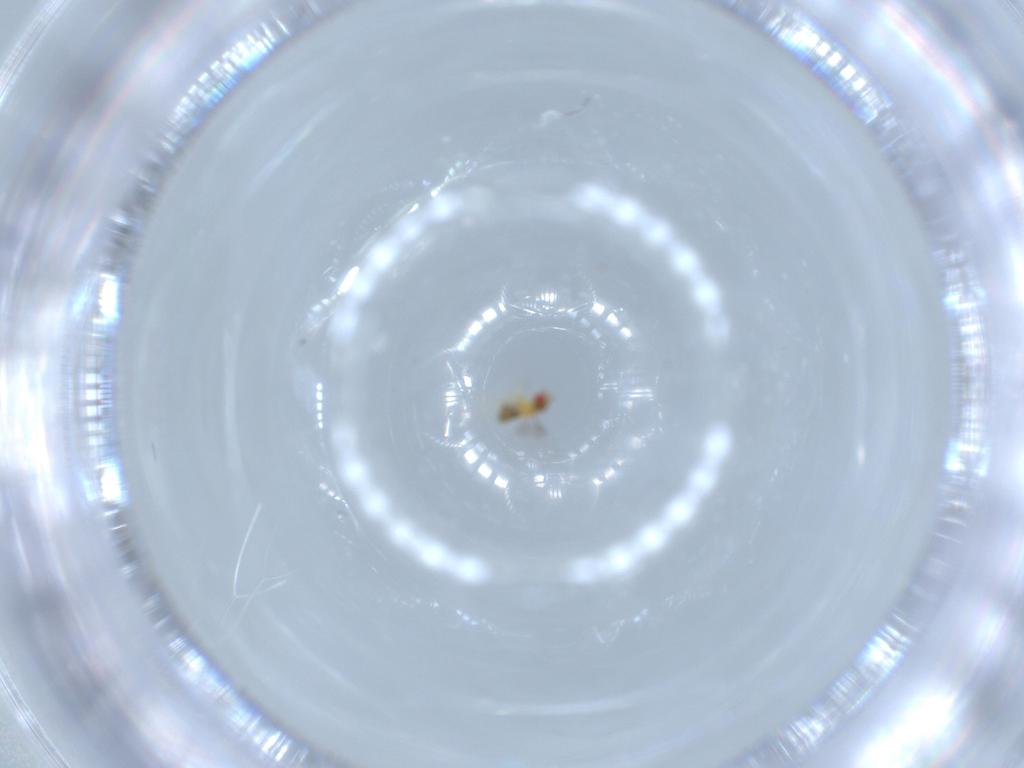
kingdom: Animalia
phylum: Arthropoda
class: Insecta
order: Hymenoptera
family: Trichogrammatidae
